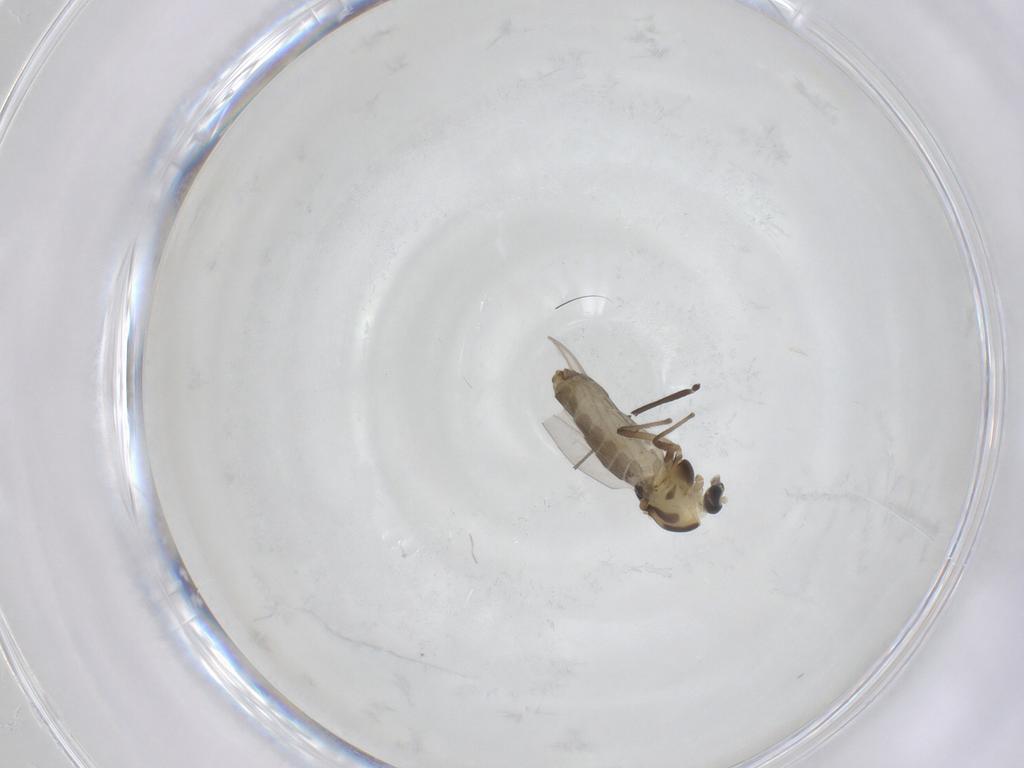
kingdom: Animalia
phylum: Arthropoda
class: Insecta
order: Diptera
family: Chironomidae
